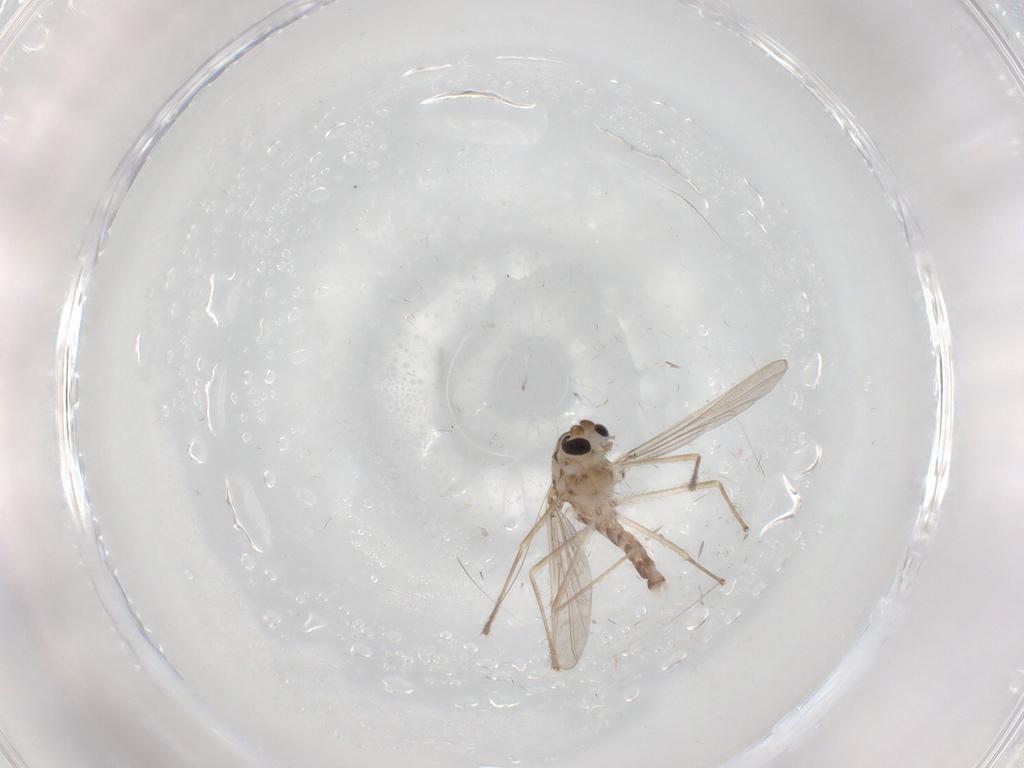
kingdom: Animalia
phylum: Arthropoda
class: Insecta
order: Diptera
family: Chironomidae
